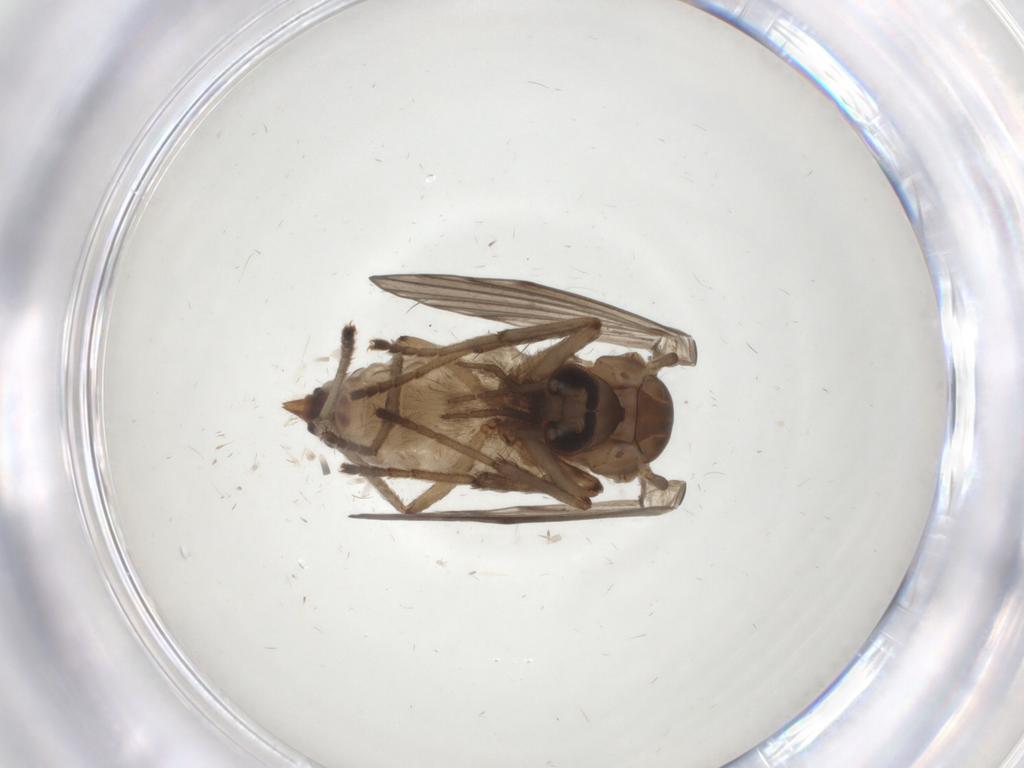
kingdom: Animalia
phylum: Arthropoda
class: Insecta
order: Diptera
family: Psychodidae
